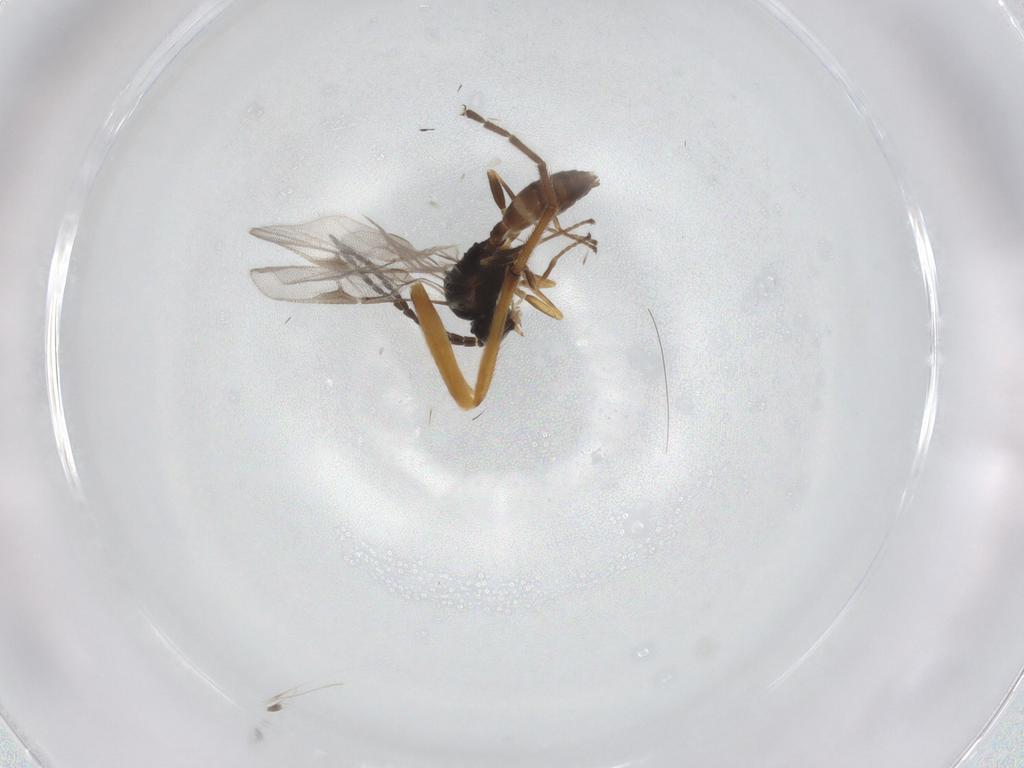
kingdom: Animalia
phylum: Arthropoda
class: Insecta
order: Hymenoptera
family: Braconidae
